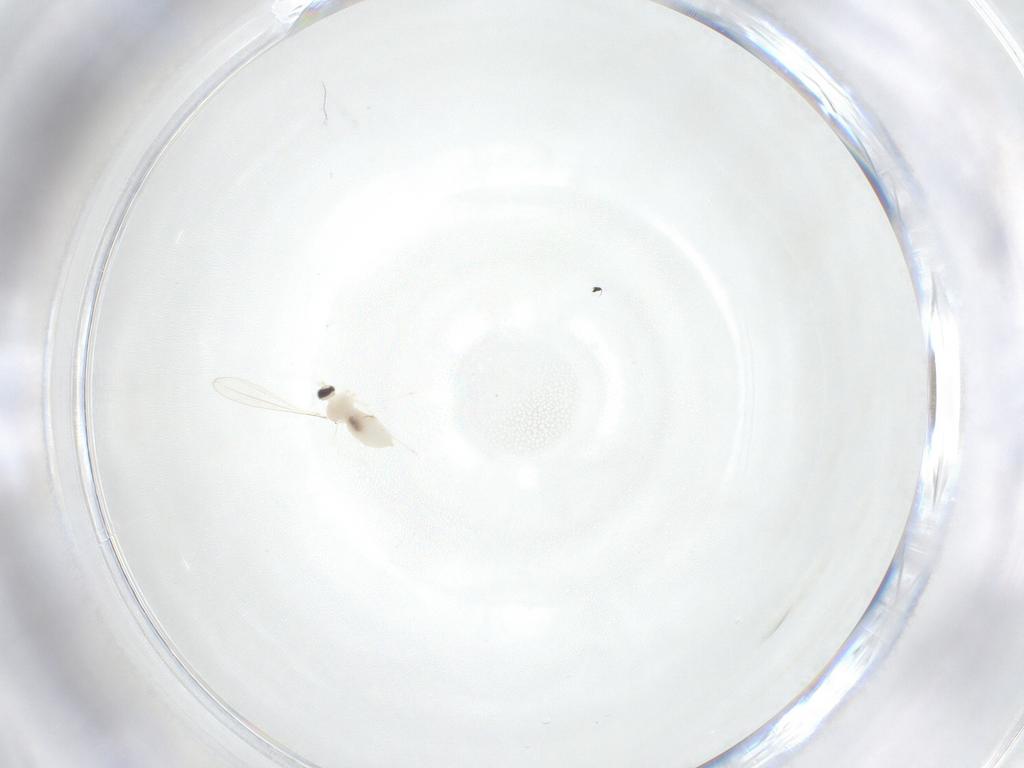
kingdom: Animalia
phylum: Arthropoda
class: Insecta
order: Diptera
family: Cecidomyiidae
